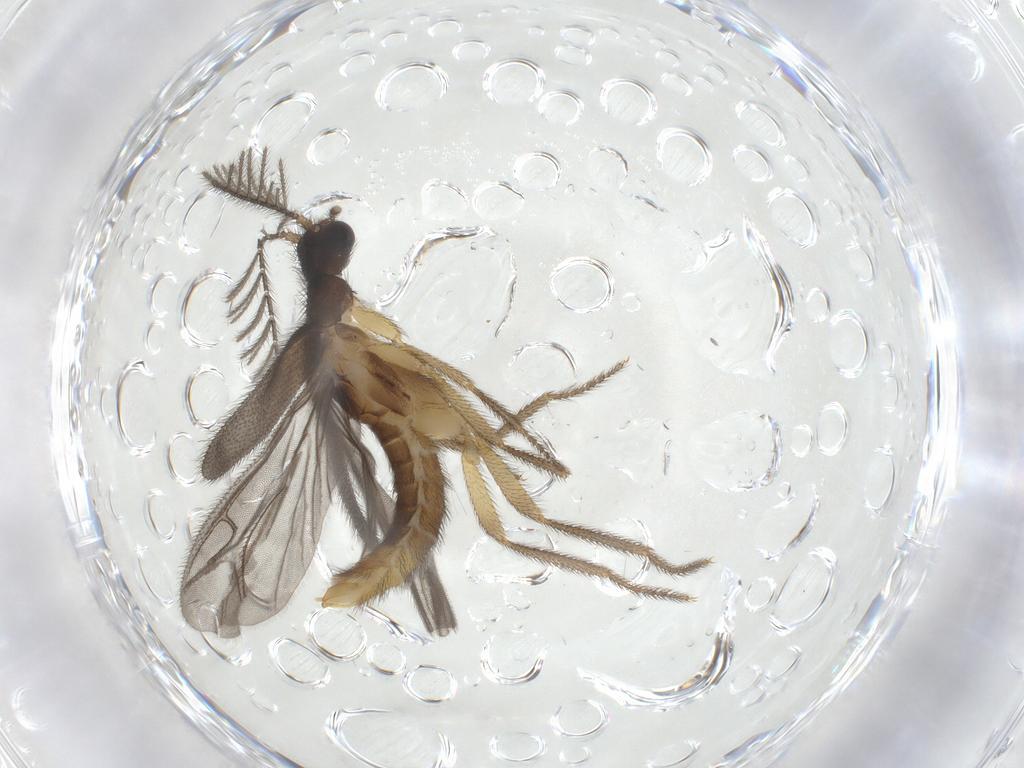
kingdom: Animalia
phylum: Arthropoda
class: Insecta
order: Coleoptera
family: Phengodidae
